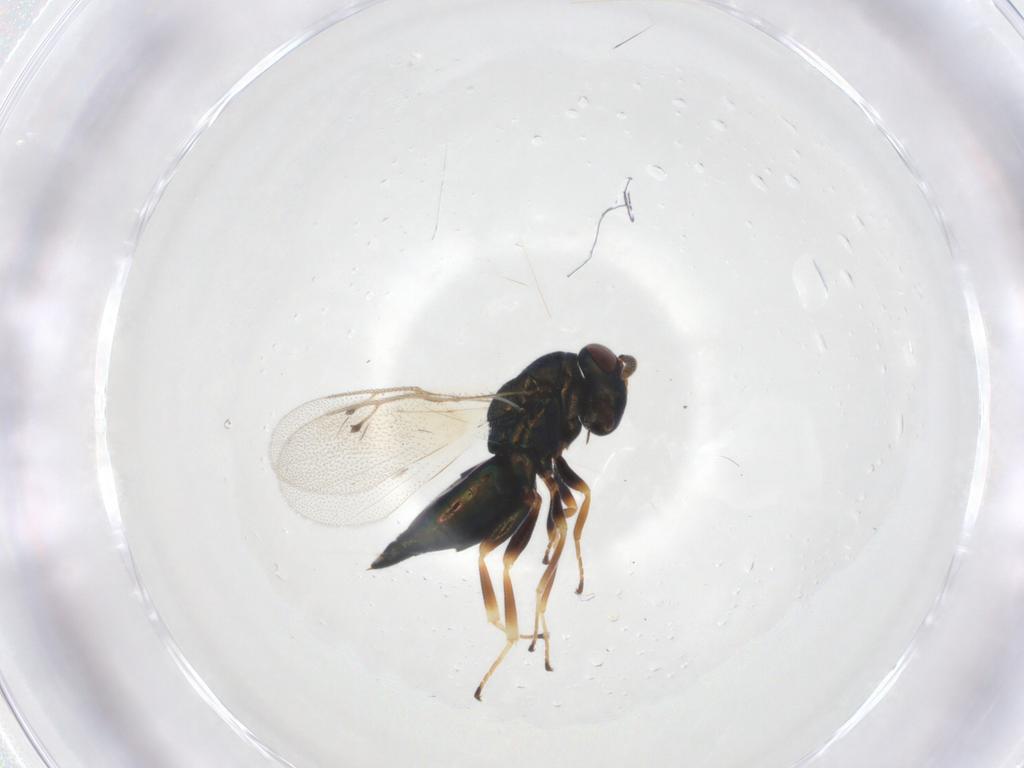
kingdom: Animalia
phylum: Arthropoda
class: Insecta
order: Hymenoptera
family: Pteromalidae
